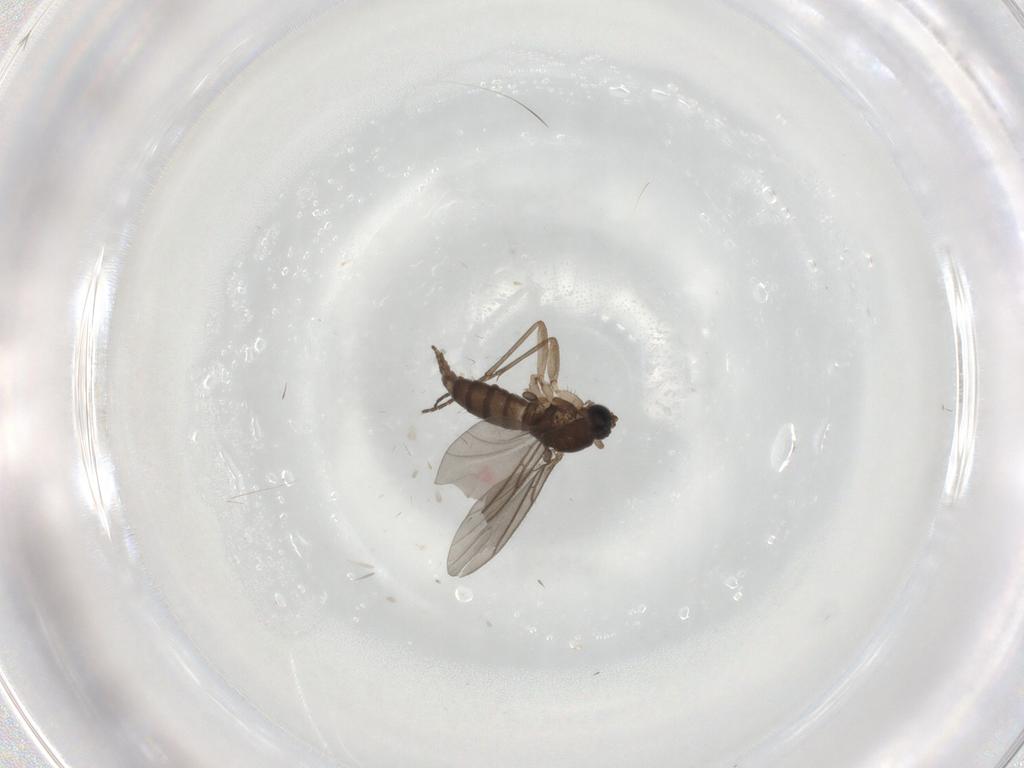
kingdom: Animalia
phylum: Arthropoda
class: Insecta
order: Diptera
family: Sciaridae
